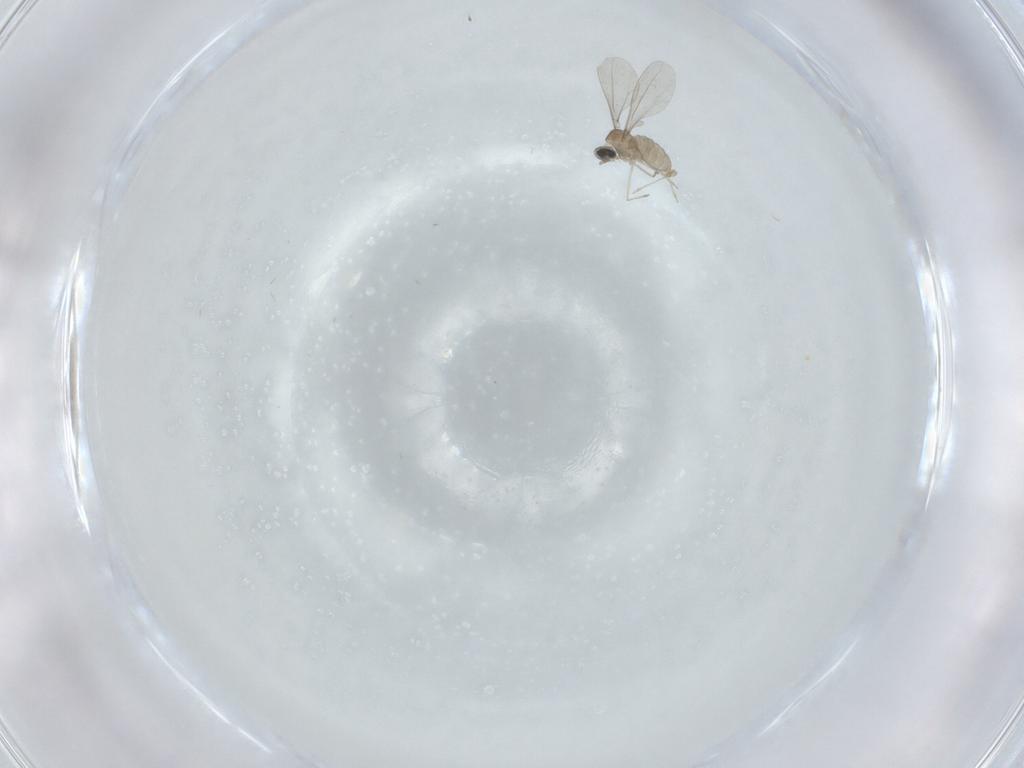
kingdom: Animalia
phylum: Arthropoda
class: Insecta
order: Diptera
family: Cecidomyiidae
